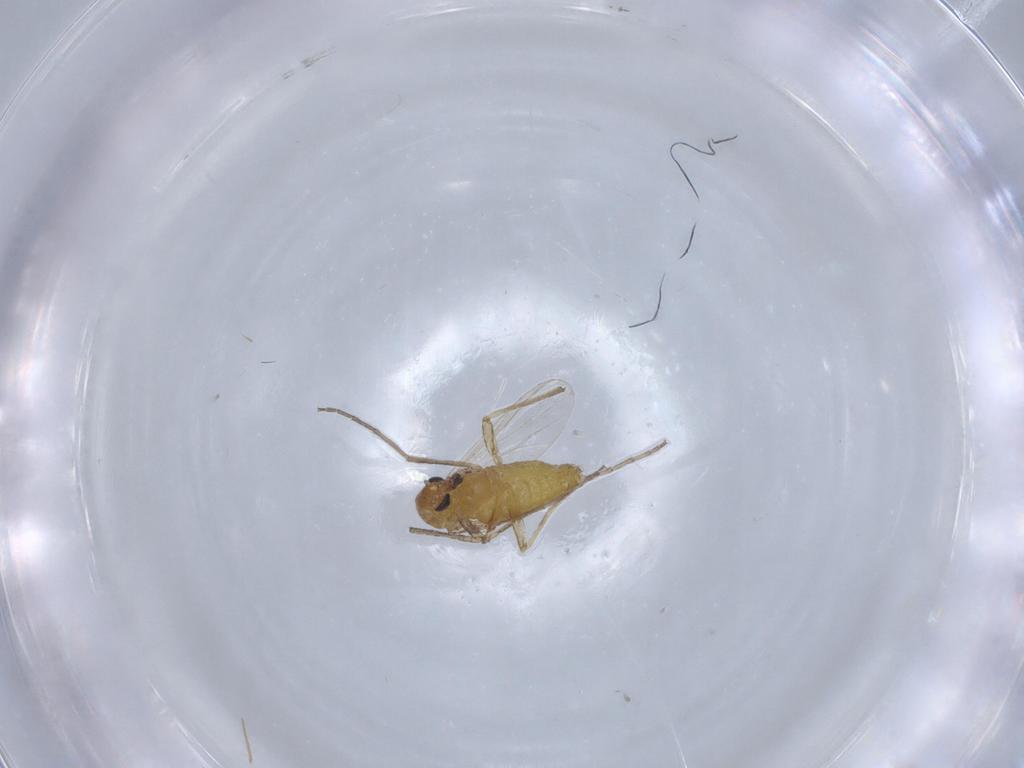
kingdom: Animalia
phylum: Arthropoda
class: Insecta
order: Diptera
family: Chironomidae
